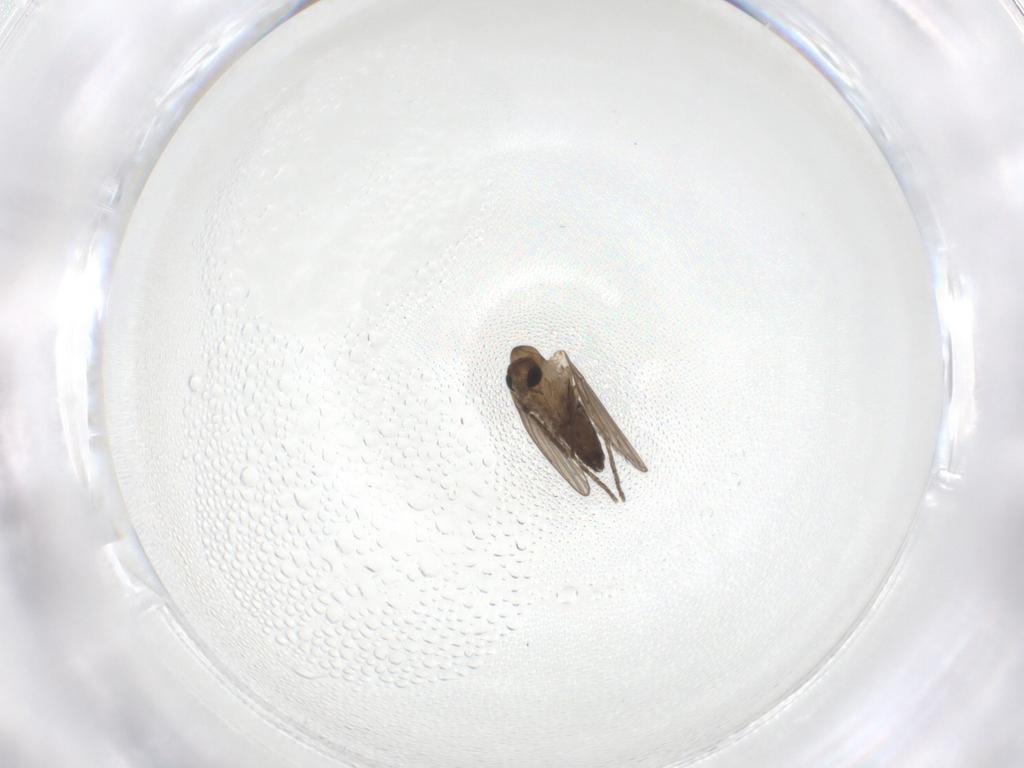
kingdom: Animalia
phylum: Arthropoda
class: Insecta
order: Diptera
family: Psychodidae
